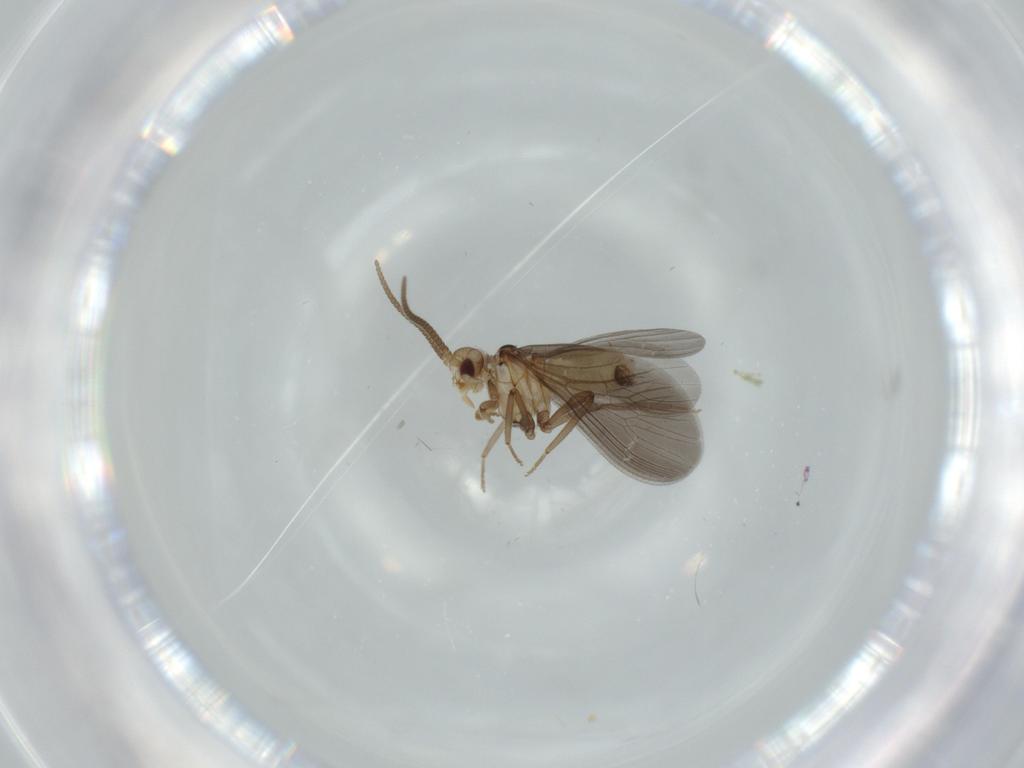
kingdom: Animalia
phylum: Arthropoda
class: Insecta
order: Neuroptera
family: Coniopterygidae
